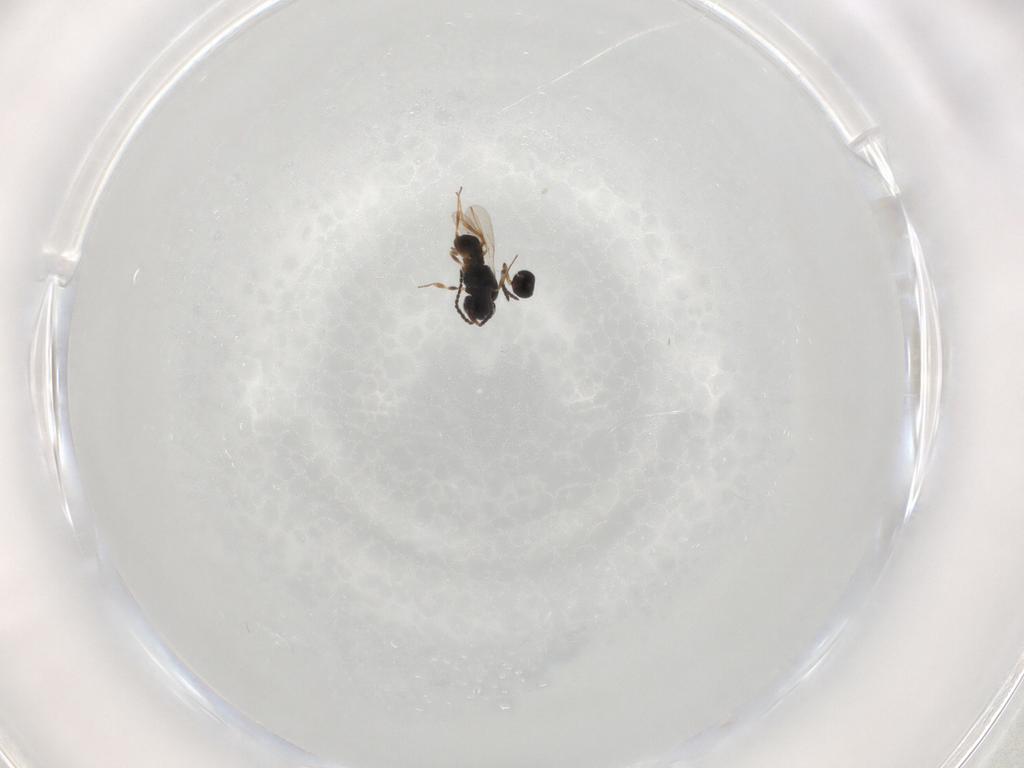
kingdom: Animalia
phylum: Arthropoda
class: Insecta
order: Hymenoptera
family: Scelionidae
